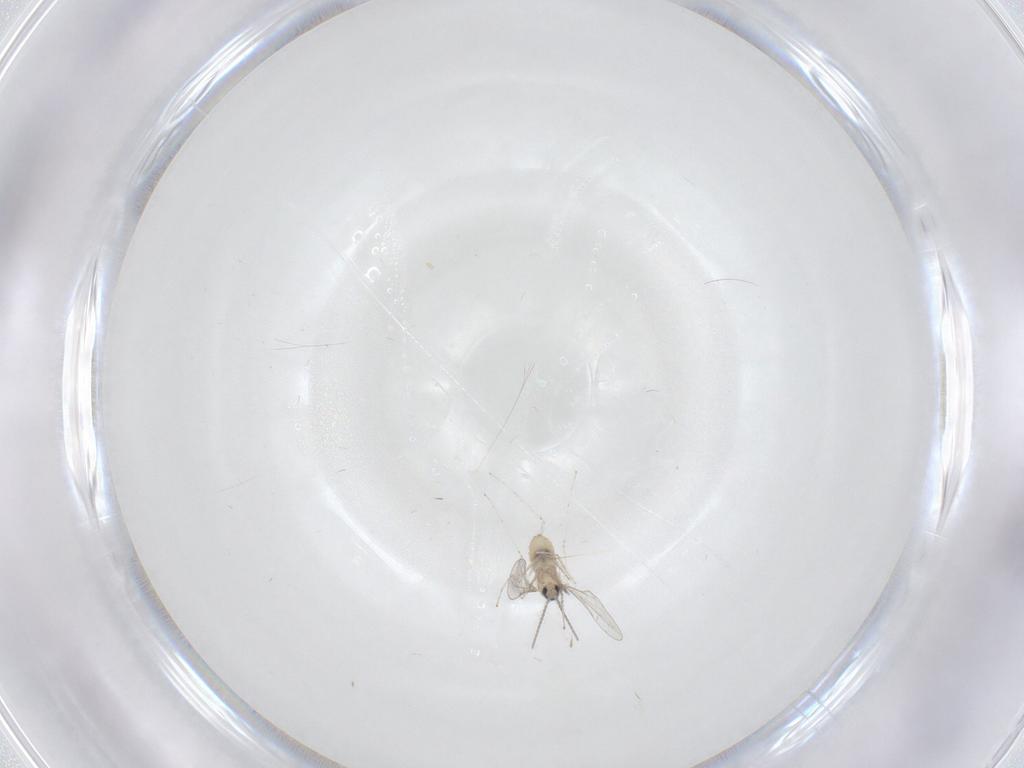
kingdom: Animalia
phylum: Arthropoda
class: Insecta
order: Diptera
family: Cecidomyiidae
